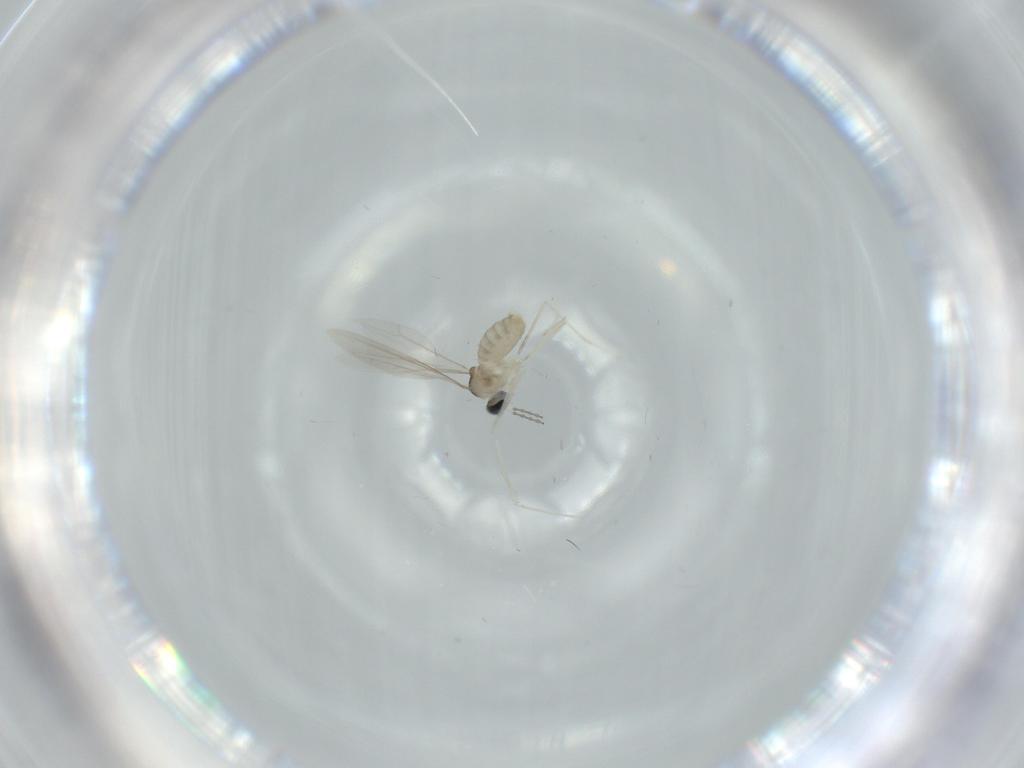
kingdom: Animalia
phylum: Arthropoda
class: Insecta
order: Diptera
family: Cecidomyiidae
